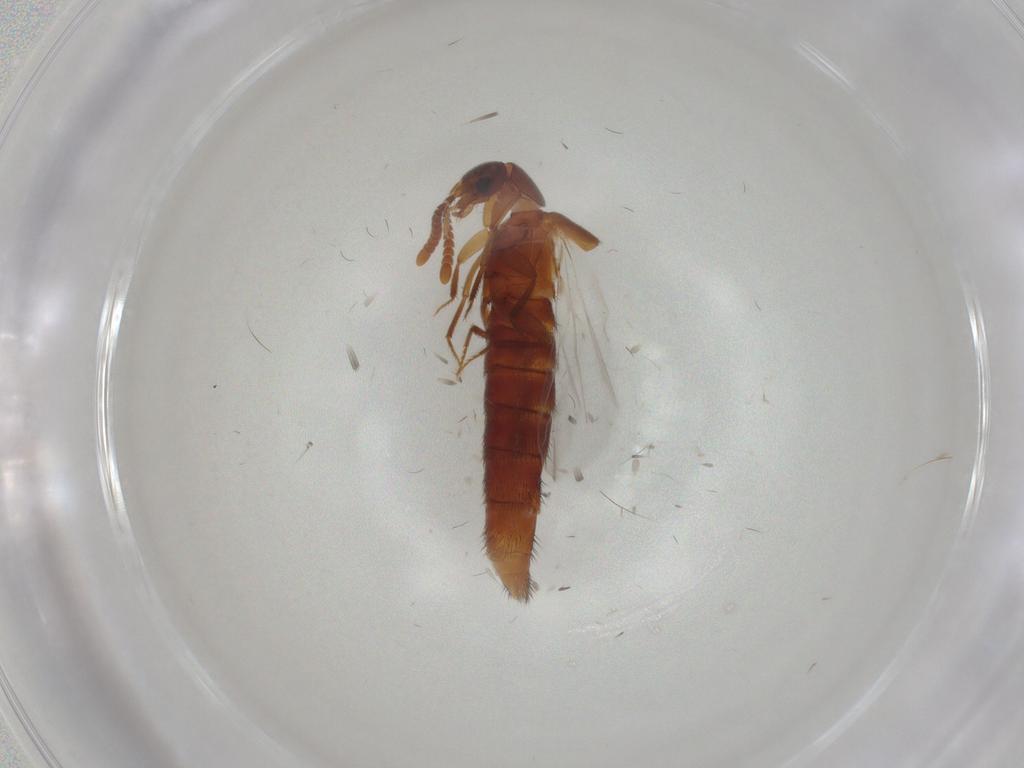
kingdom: Animalia
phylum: Arthropoda
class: Insecta
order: Coleoptera
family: Staphylinidae
